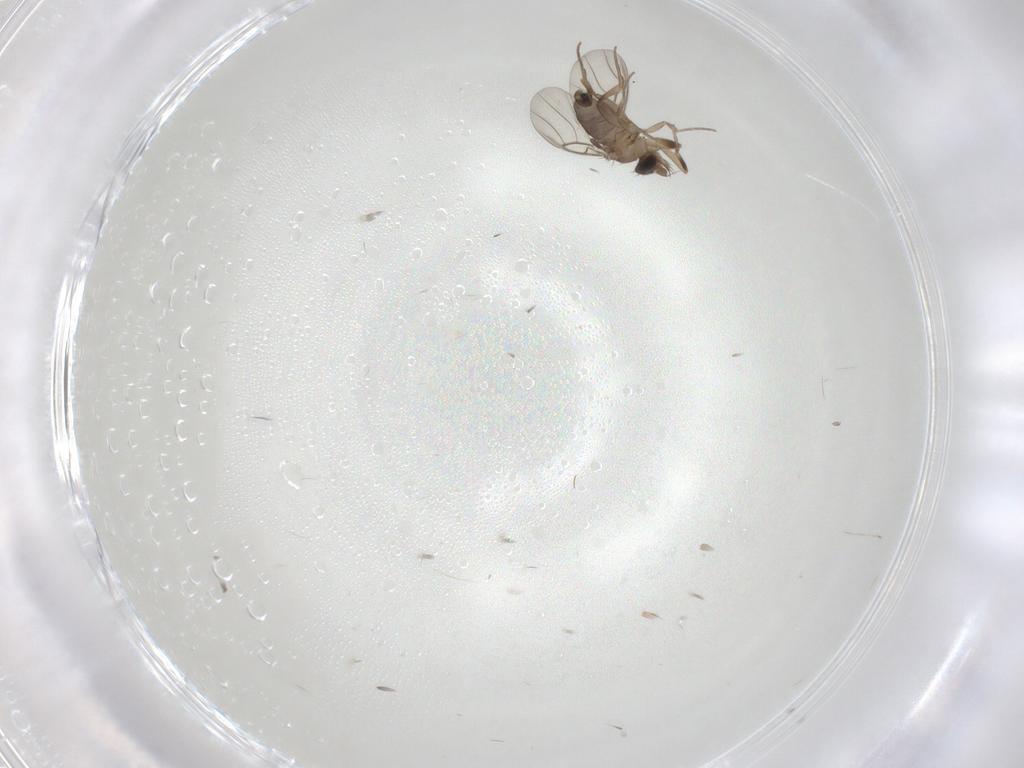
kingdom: Animalia
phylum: Arthropoda
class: Insecta
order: Diptera
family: Phoridae
